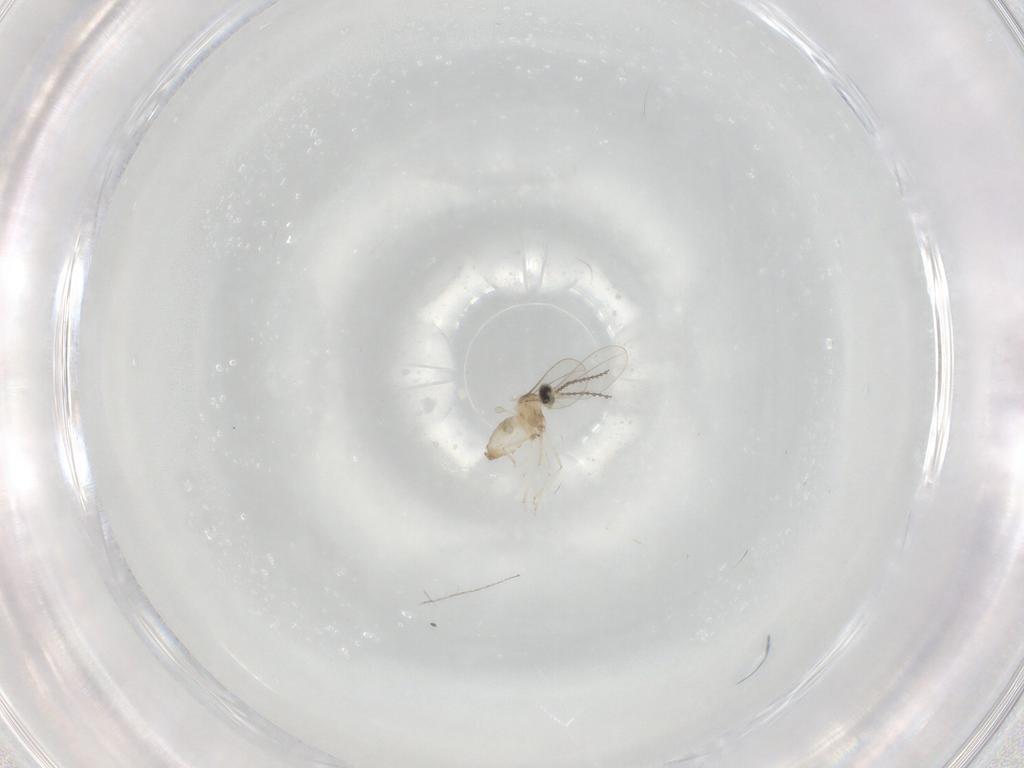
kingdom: Animalia
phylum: Arthropoda
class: Insecta
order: Diptera
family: Cecidomyiidae
